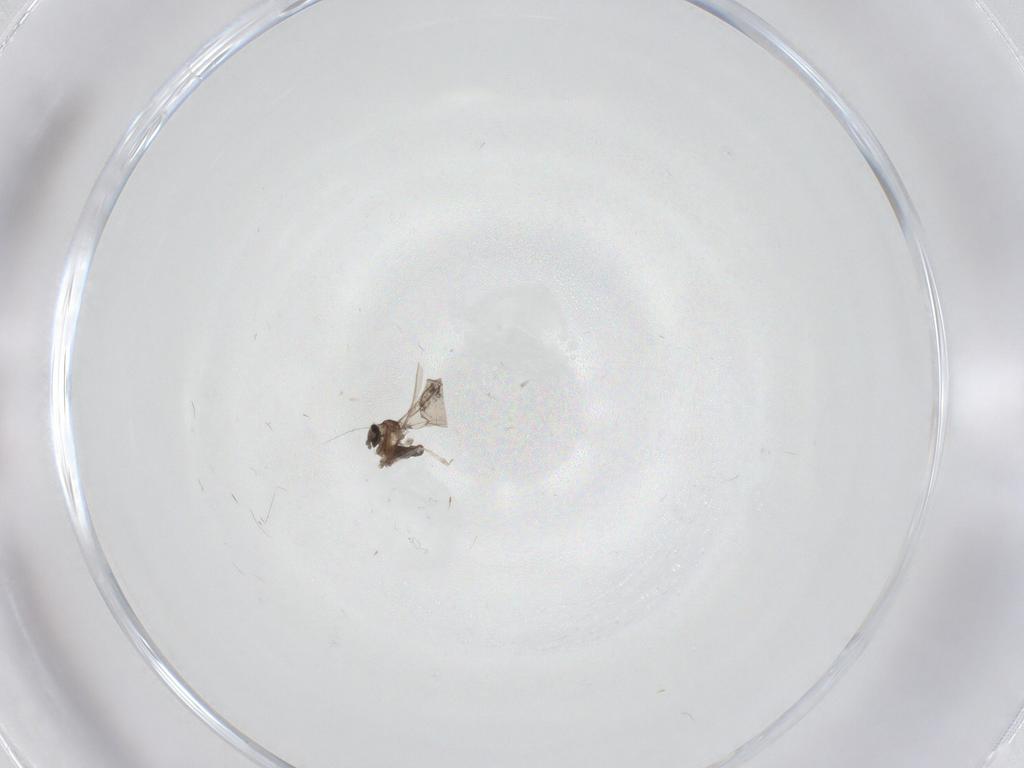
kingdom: Animalia
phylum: Arthropoda
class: Insecta
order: Diptera
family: Cecidomyiidae
